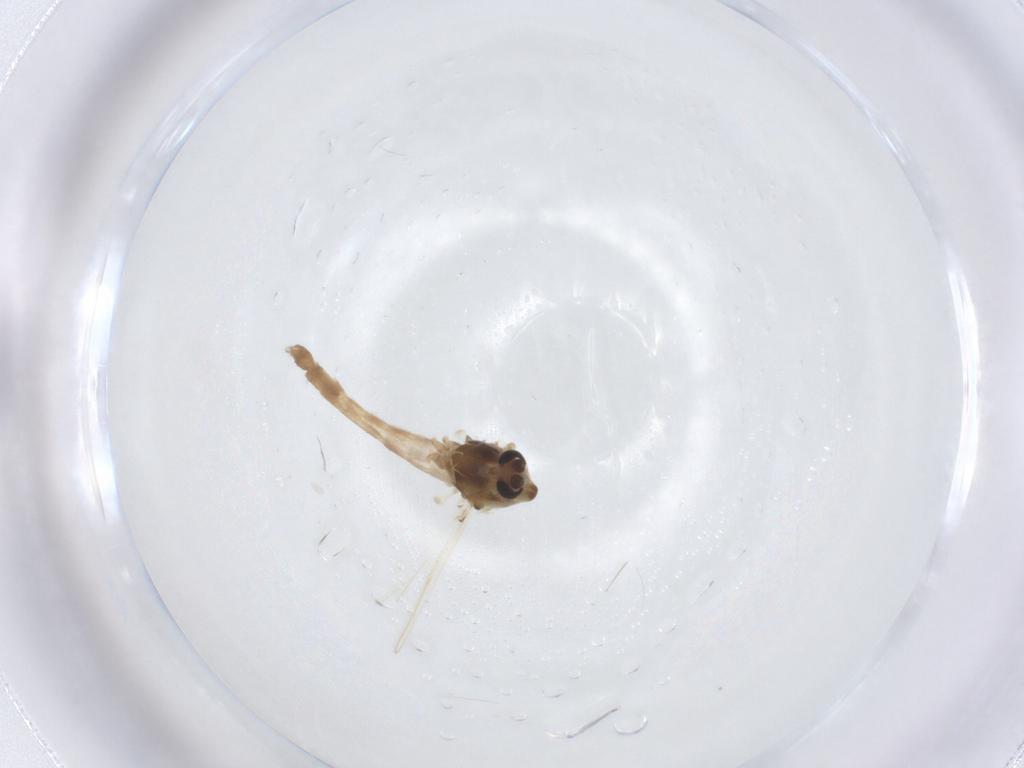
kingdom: Animalia
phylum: Arthropoda
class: Insecta
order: Diptera
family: Chironomidae
